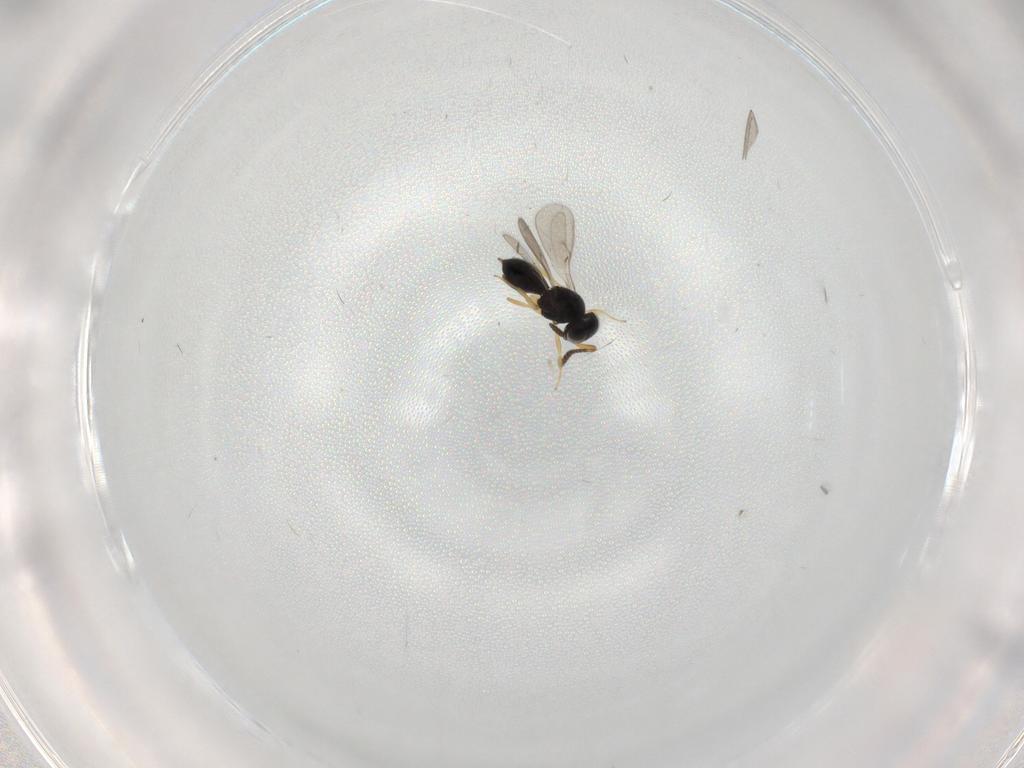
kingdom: Animalia
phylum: Arthropoda
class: Insecta
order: Hymenoptera
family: Scelionidae
